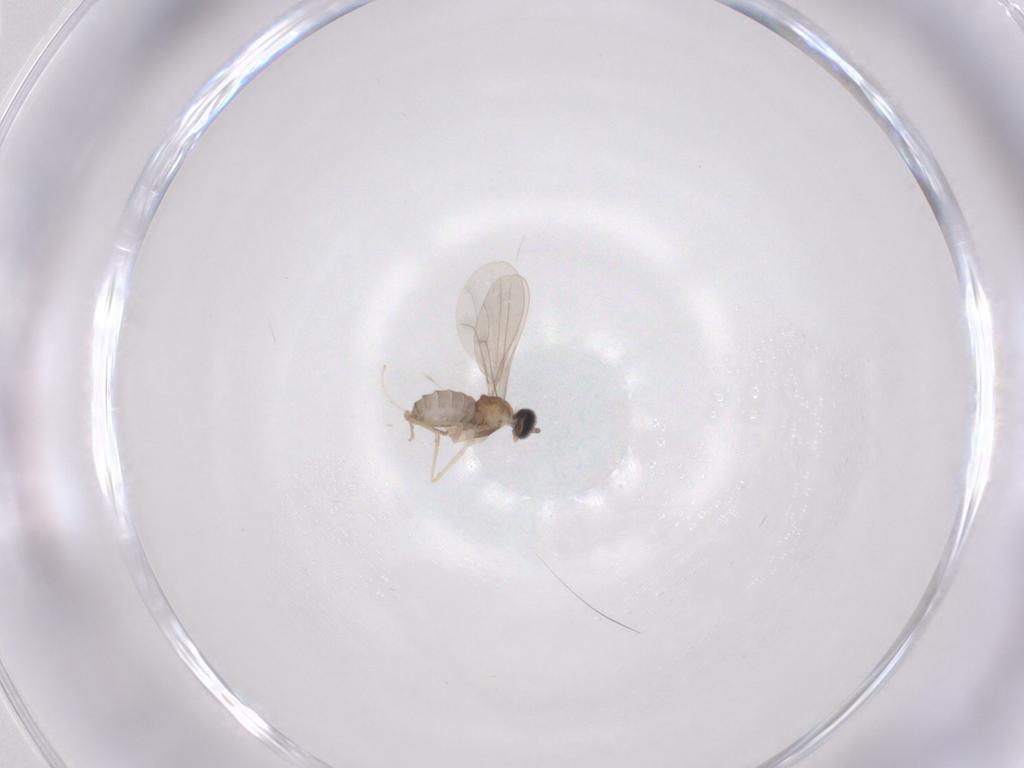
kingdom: Animalia
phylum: Arthropoda
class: Insecta
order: Diptera
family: Cecidomyiidae
